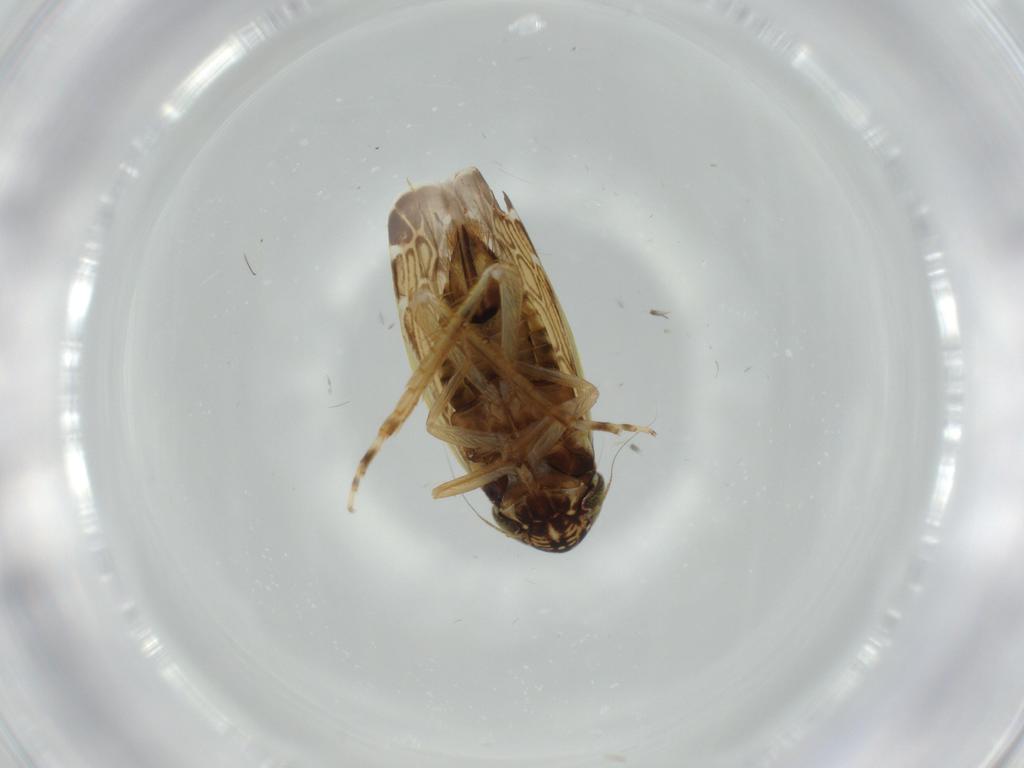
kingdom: Animalia
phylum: Arthropoda
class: Insecta
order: Hemiptera
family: Cicadellidae
